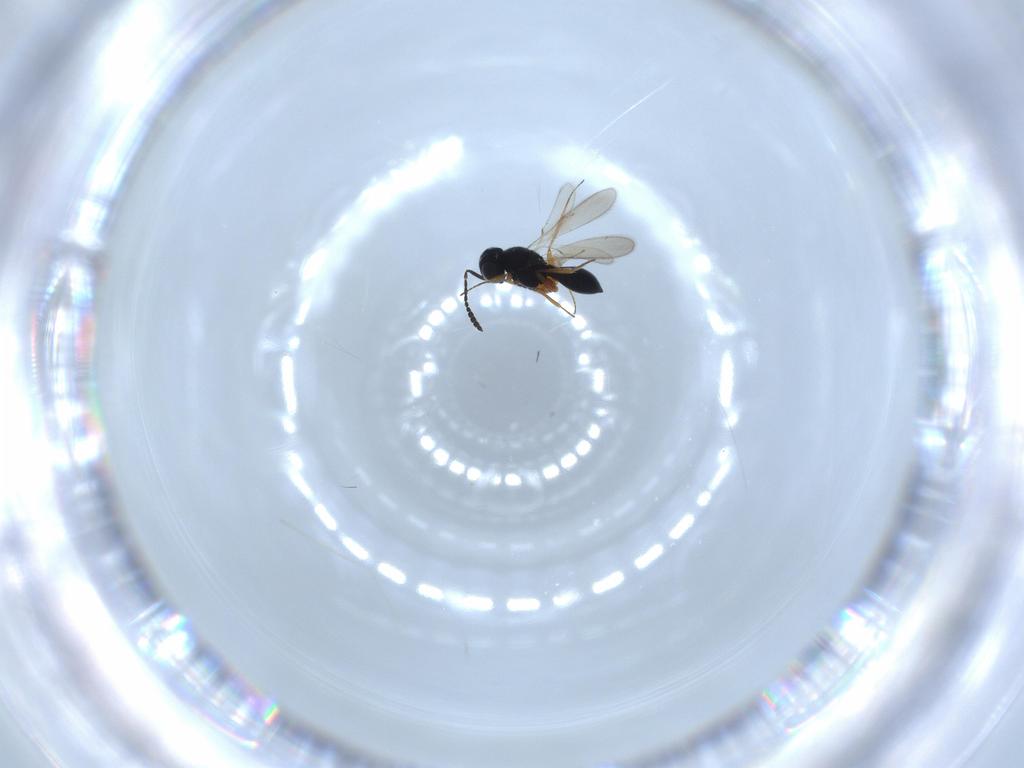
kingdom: Animalia
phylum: Arthropoda
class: Insecta
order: Hymenoptera
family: Scelionidae
